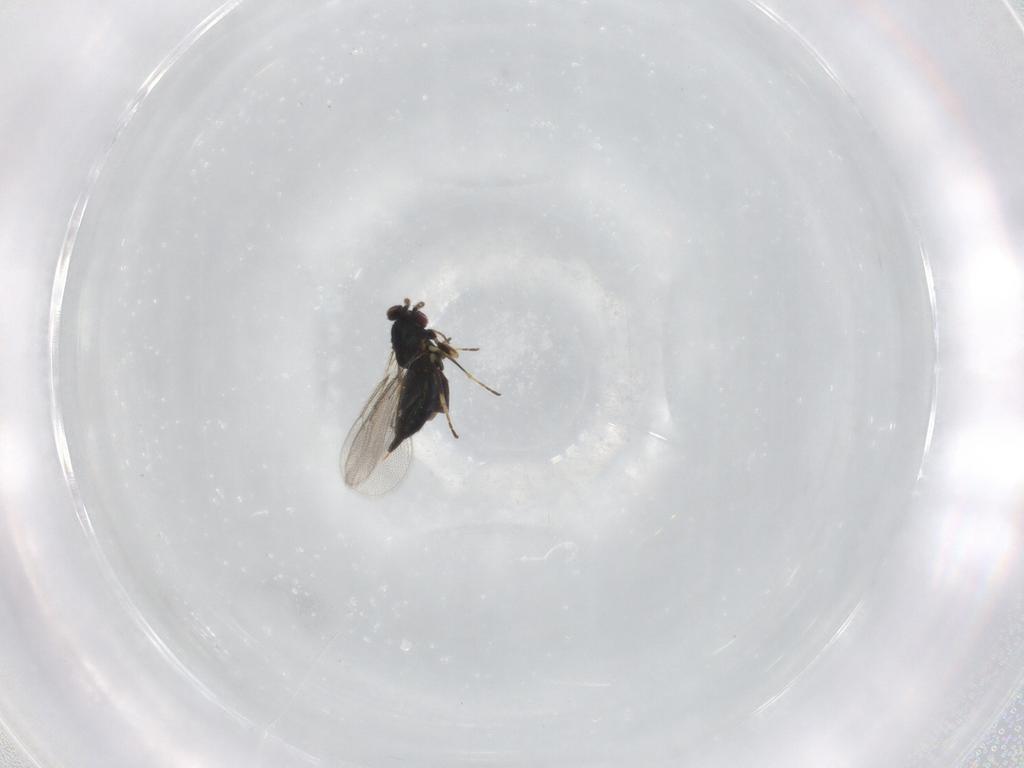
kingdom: Animalia
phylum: Arthropoda
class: Insecta
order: Hymenoptera
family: Eulophidae
